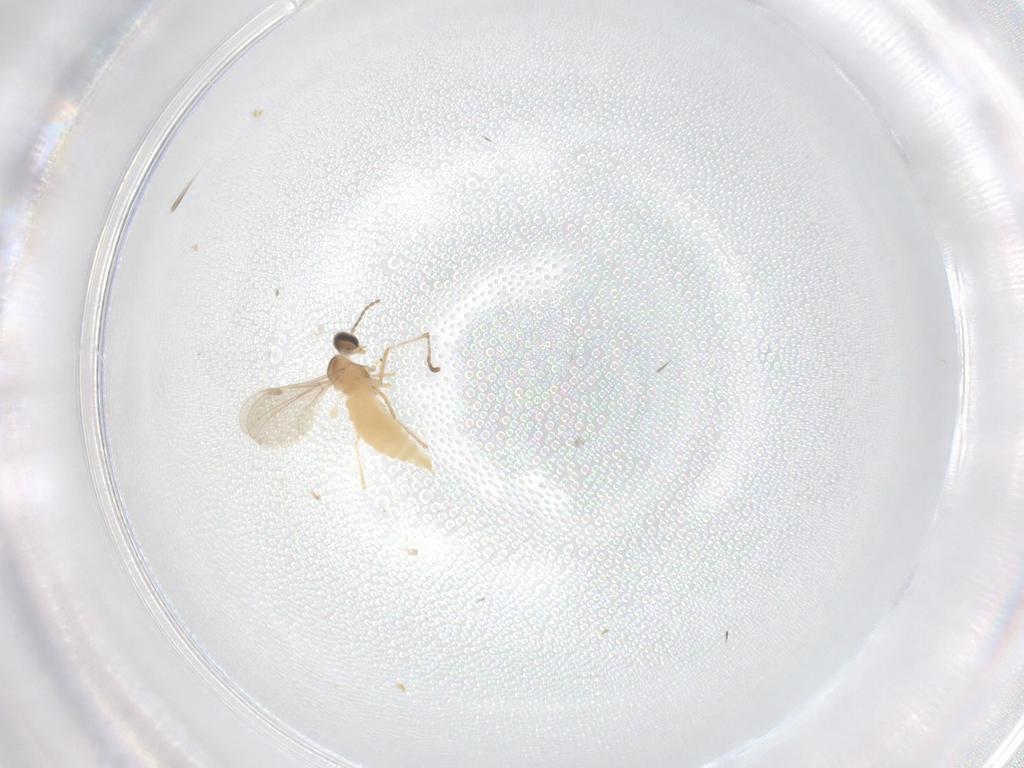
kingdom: Animalia
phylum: Arthropoda
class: Insecta
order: Diptera
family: Cecidomyiidae
